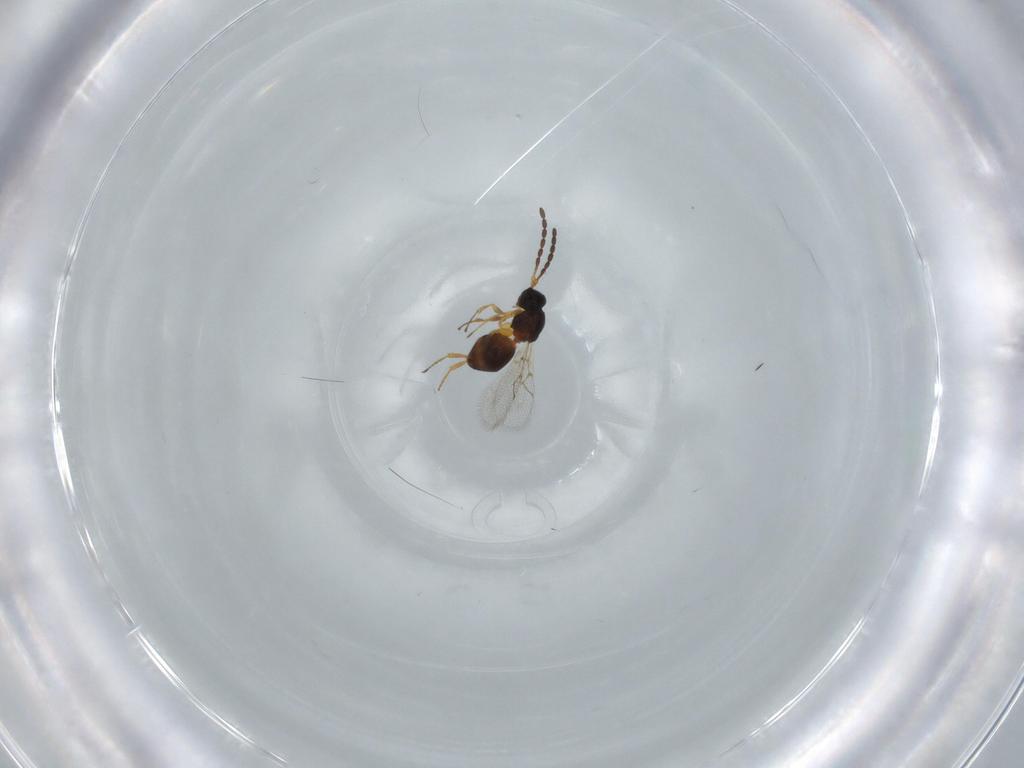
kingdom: Animalia
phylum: Arthropoda
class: Insecta
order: Hymenoptera
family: Figitidae
